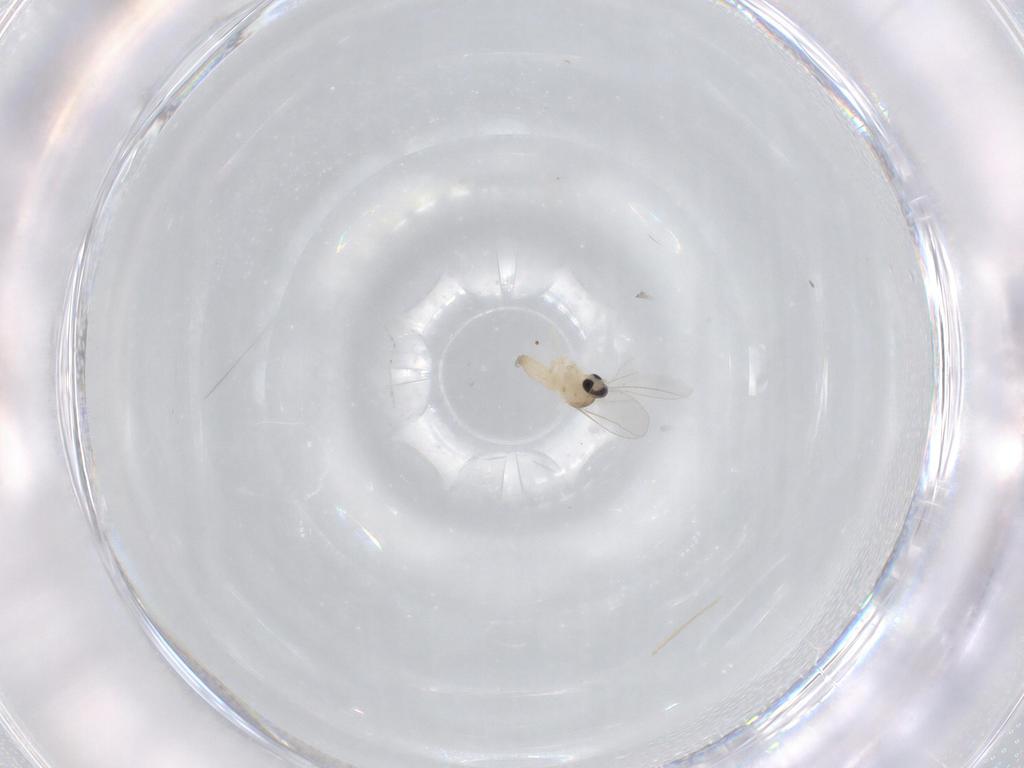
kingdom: Animalia
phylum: Arthropoda
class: Insecta
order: Diptera
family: Cecidomyiidae
